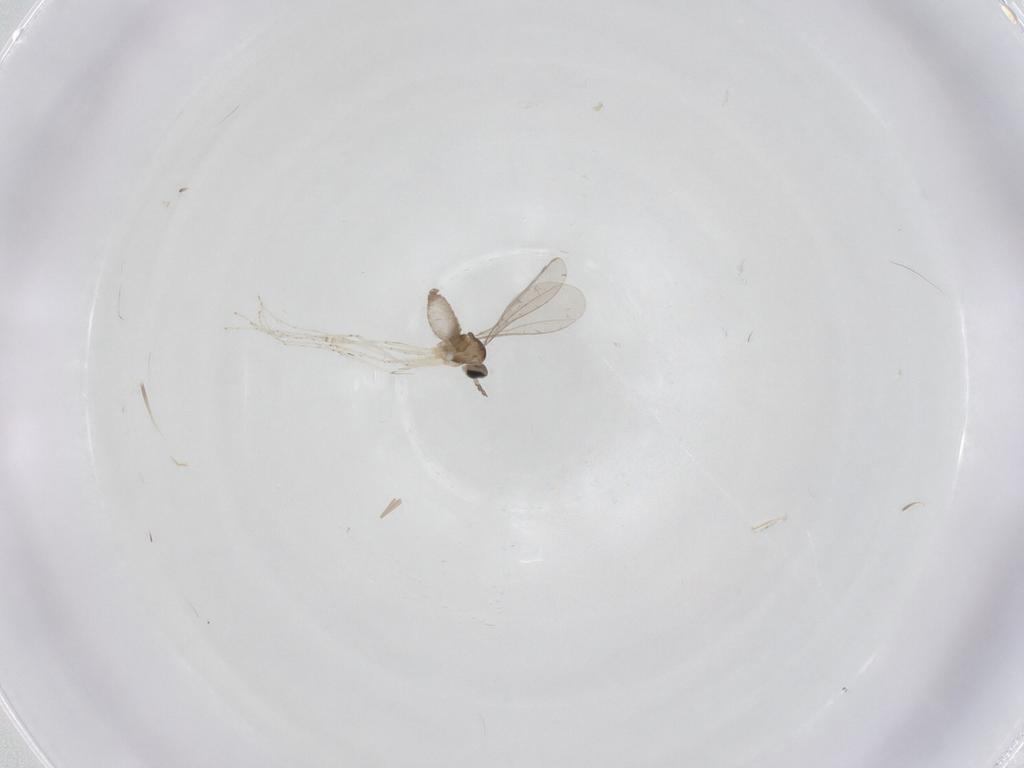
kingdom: Animalia
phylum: Arthropoda
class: Insecta
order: Diptera
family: Cecidomyiidae
